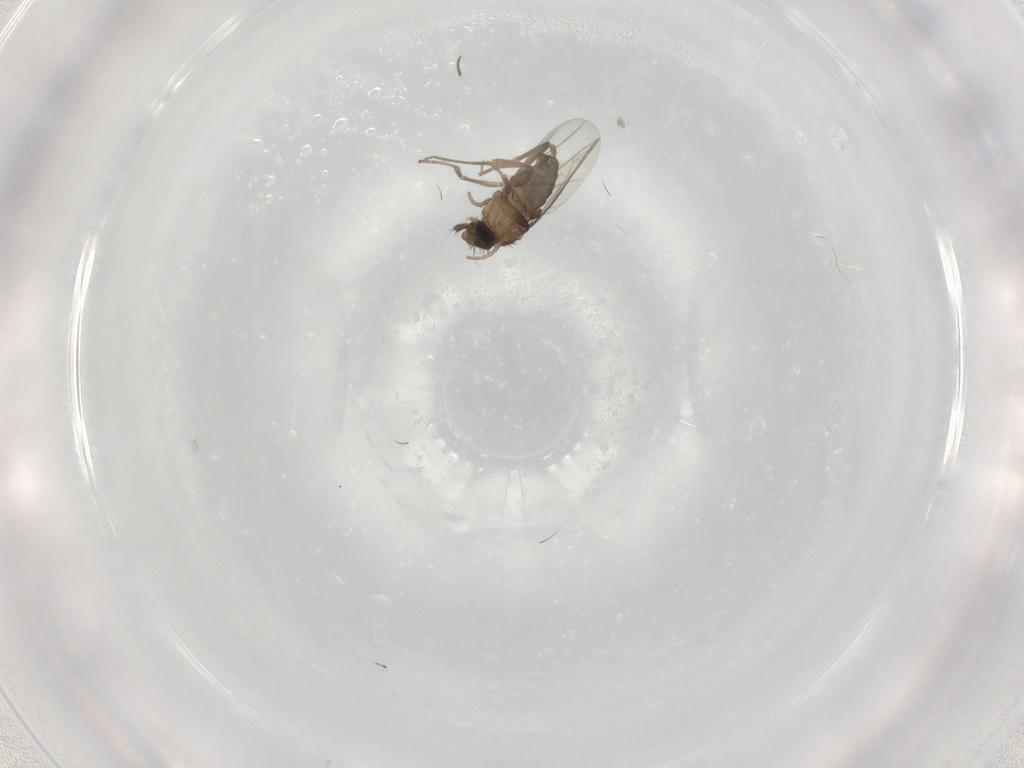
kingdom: Animalia
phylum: Arthropoda
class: Insecta
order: Diptera
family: Phoridae
